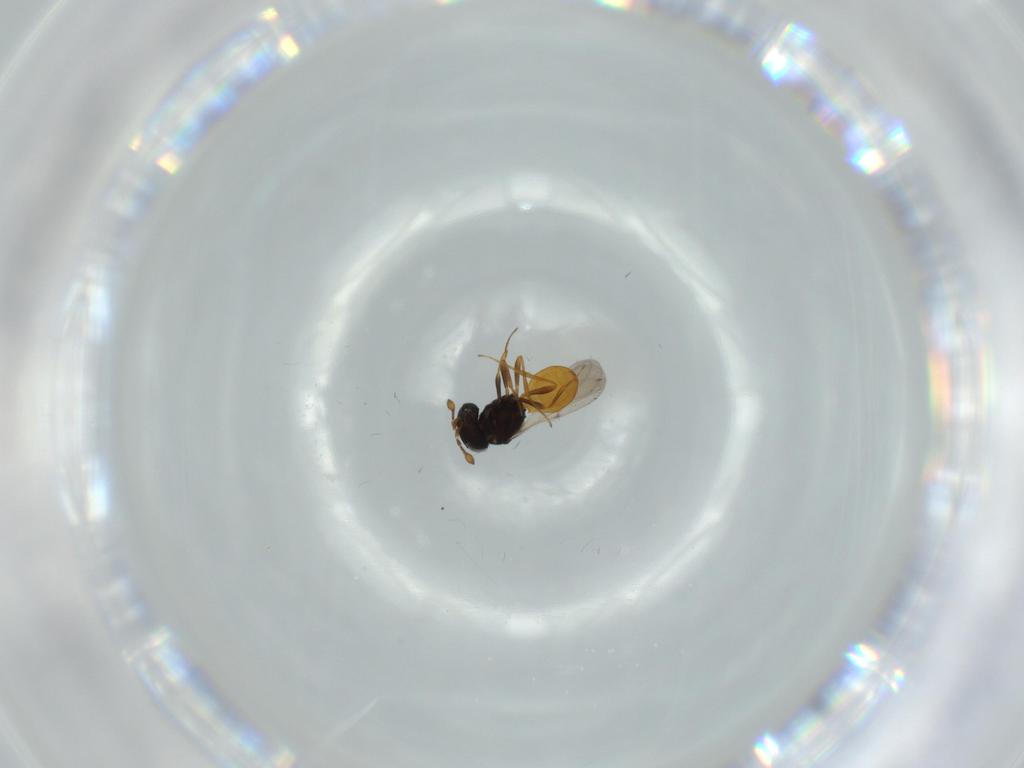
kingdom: Animalia
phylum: Arthropoda
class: Insecta
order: Hymenoptera
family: Scelionidae
